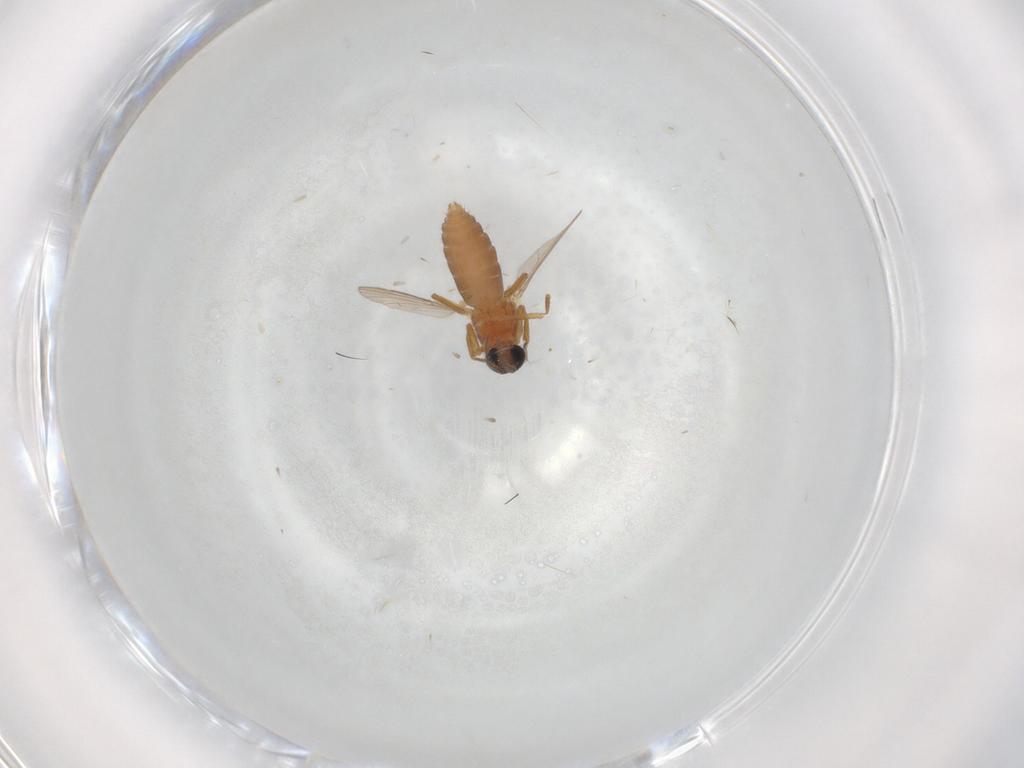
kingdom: Animalia
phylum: Arthropoda
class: Insecta
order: Diptera
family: Ceratopogonidae
